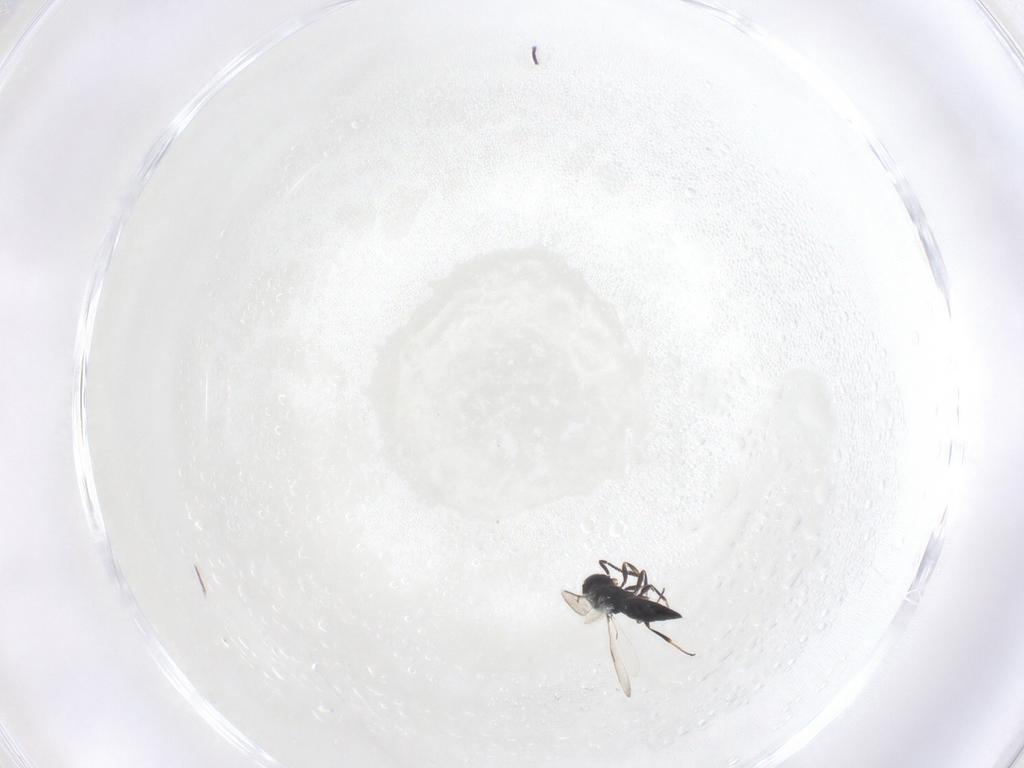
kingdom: Animalia
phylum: Arthropoda
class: Insecta
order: Hymenoptera
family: Scelionidae
